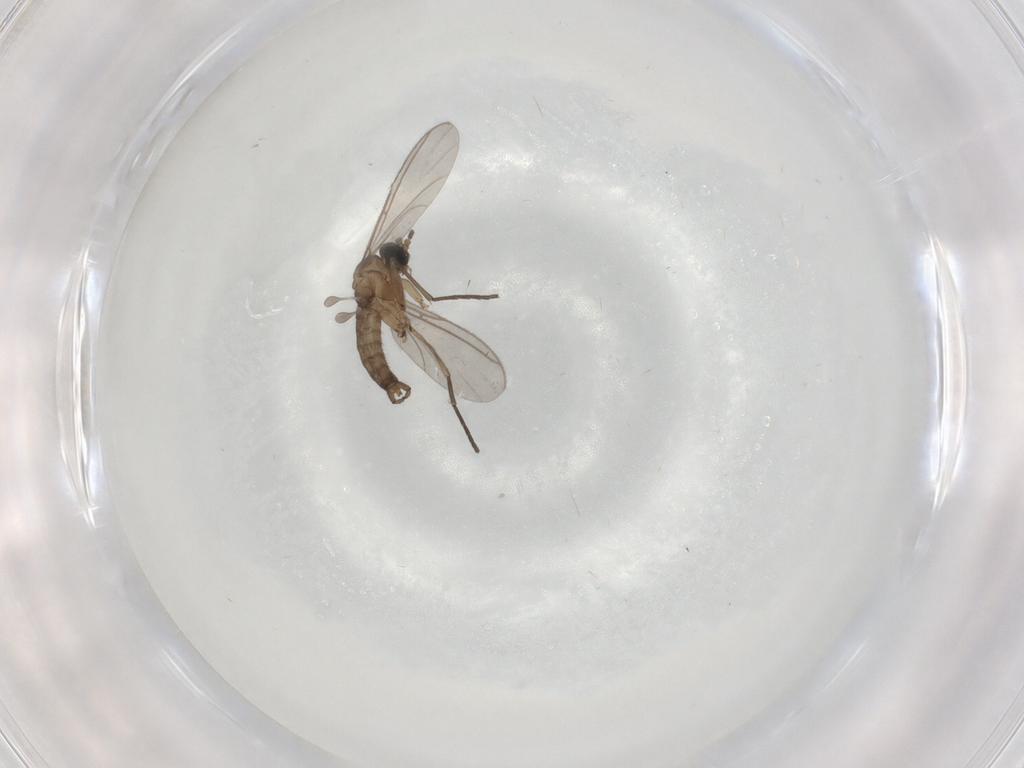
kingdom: Animalia
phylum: Arthropoda
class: Insecta
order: Diptera
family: Sciaridae
